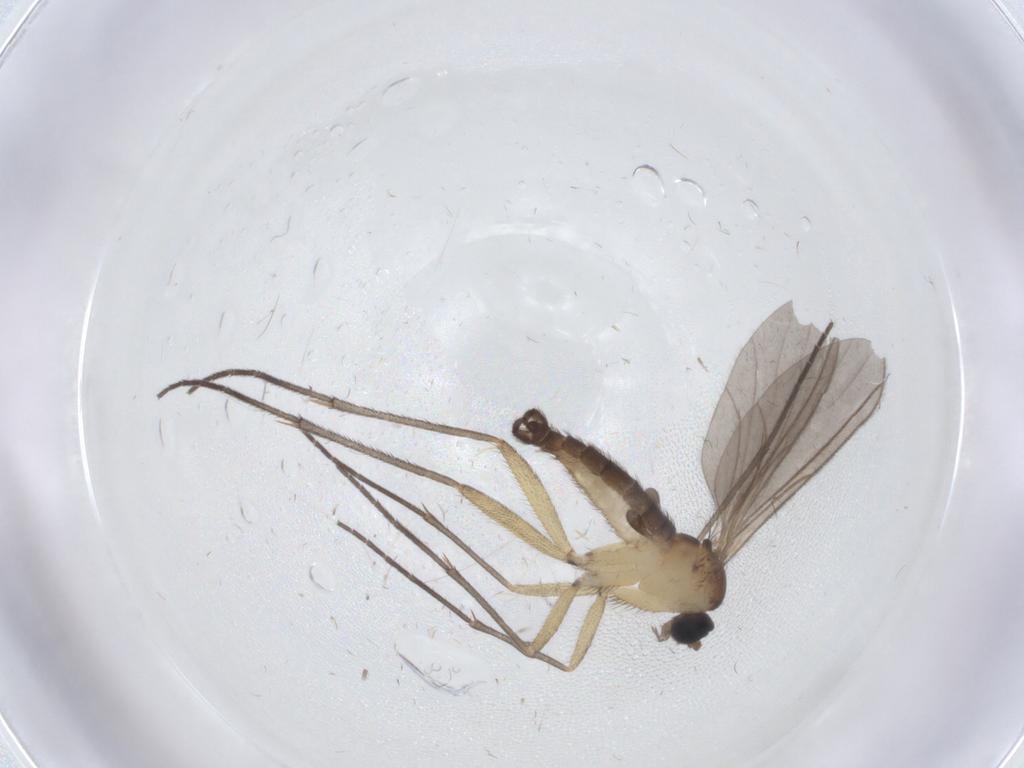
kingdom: Animalia
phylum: Arthropoda
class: Insecta
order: Diptera
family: Sciaridae
